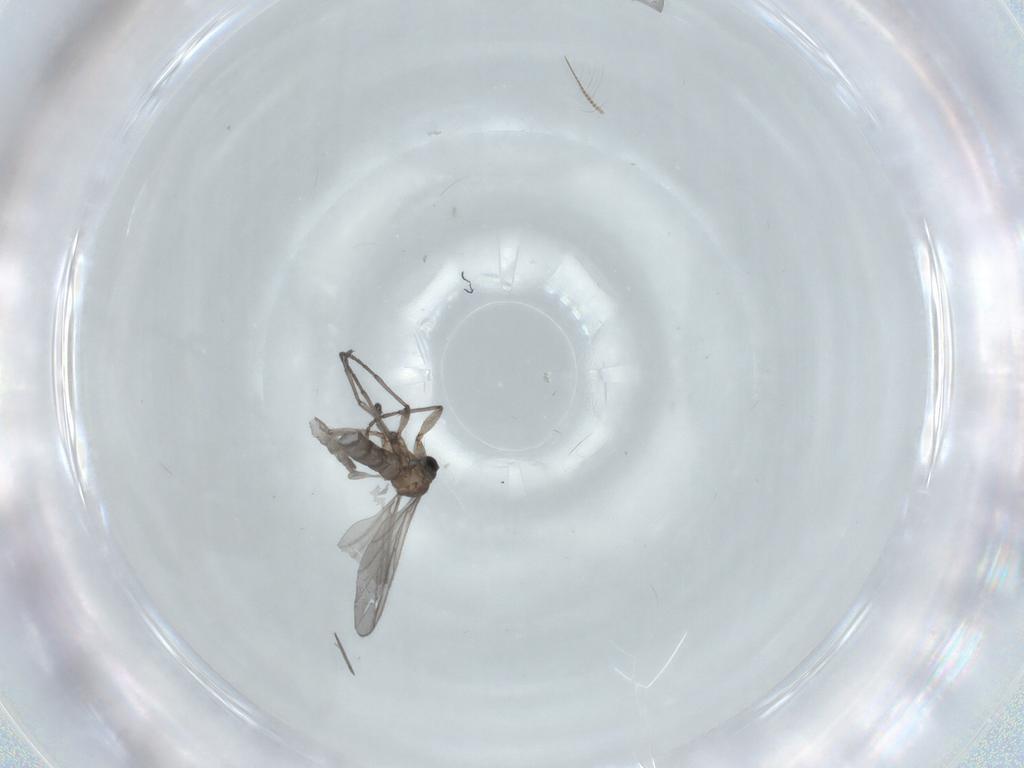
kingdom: Animalia
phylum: Arthropoda
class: Insecta
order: Diptera
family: Sciaridae
